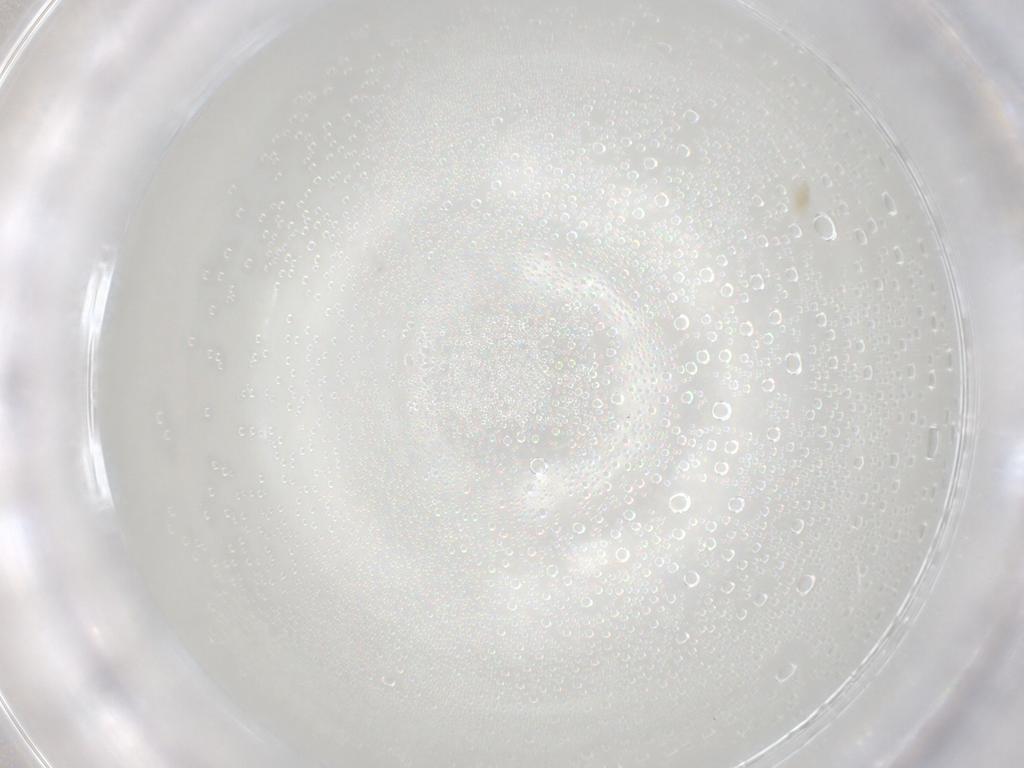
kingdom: Animalia
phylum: Arthropoda
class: Arachnida
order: Trombidiformes
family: Eupodidae
